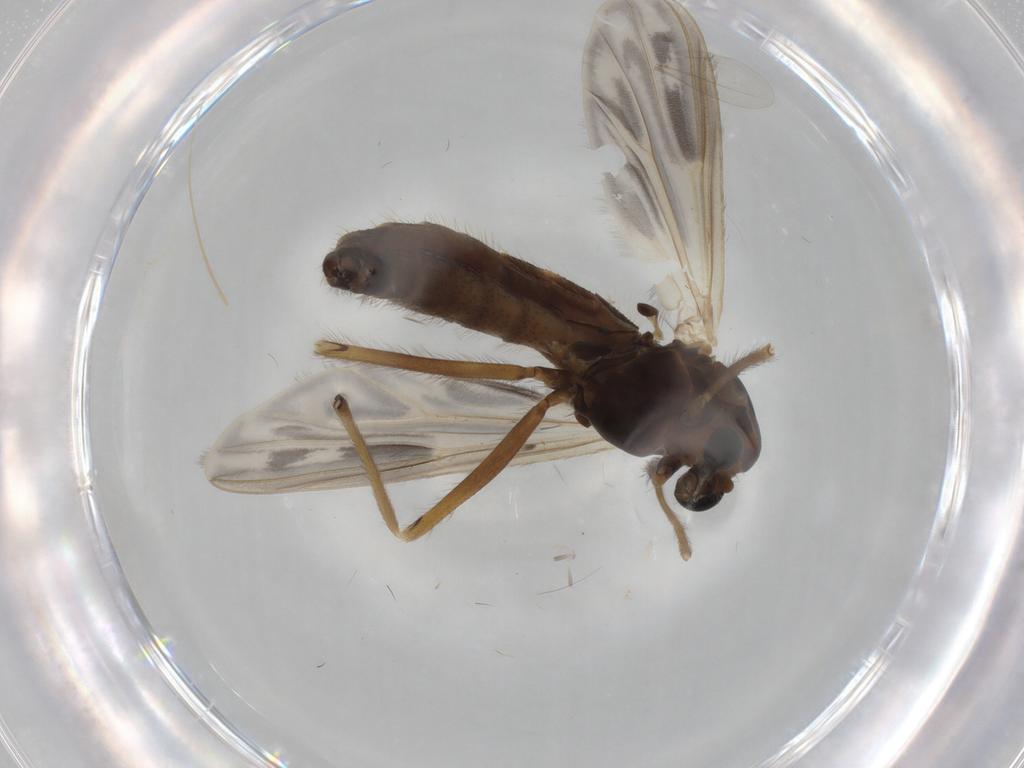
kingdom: Animalia
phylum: Arthropoda
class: Insecta
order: Diptera
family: Chironomidae
